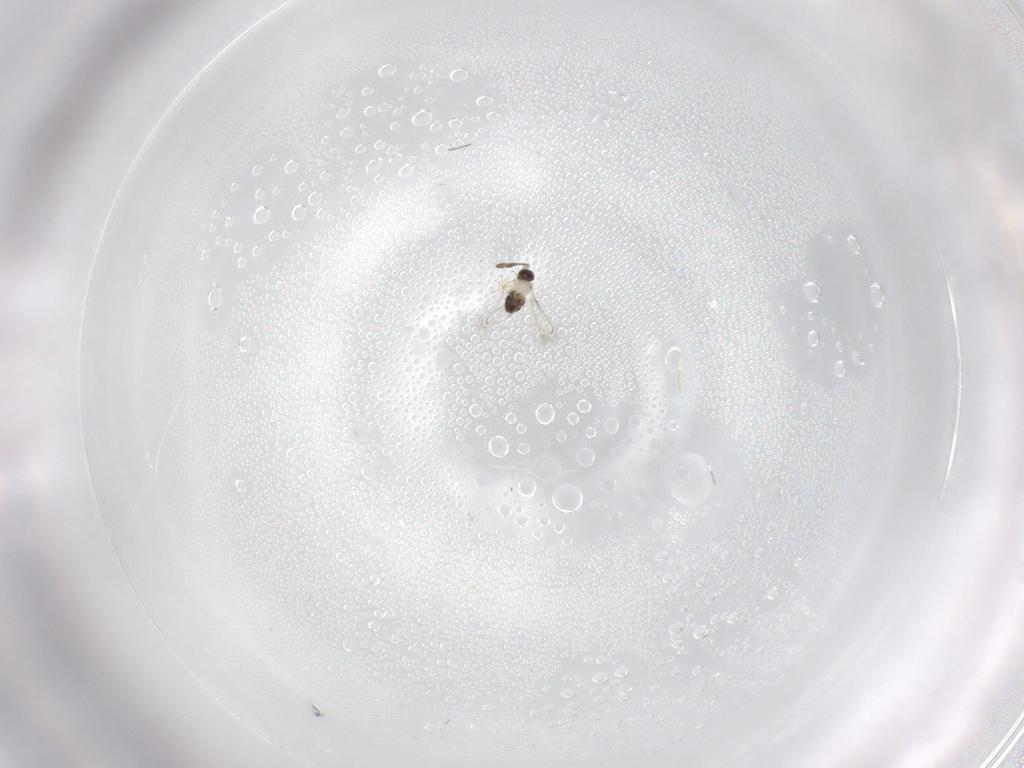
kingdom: Animalia
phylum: Arthropoda
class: Insecta
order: Hymenoptera
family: Mymaridae
